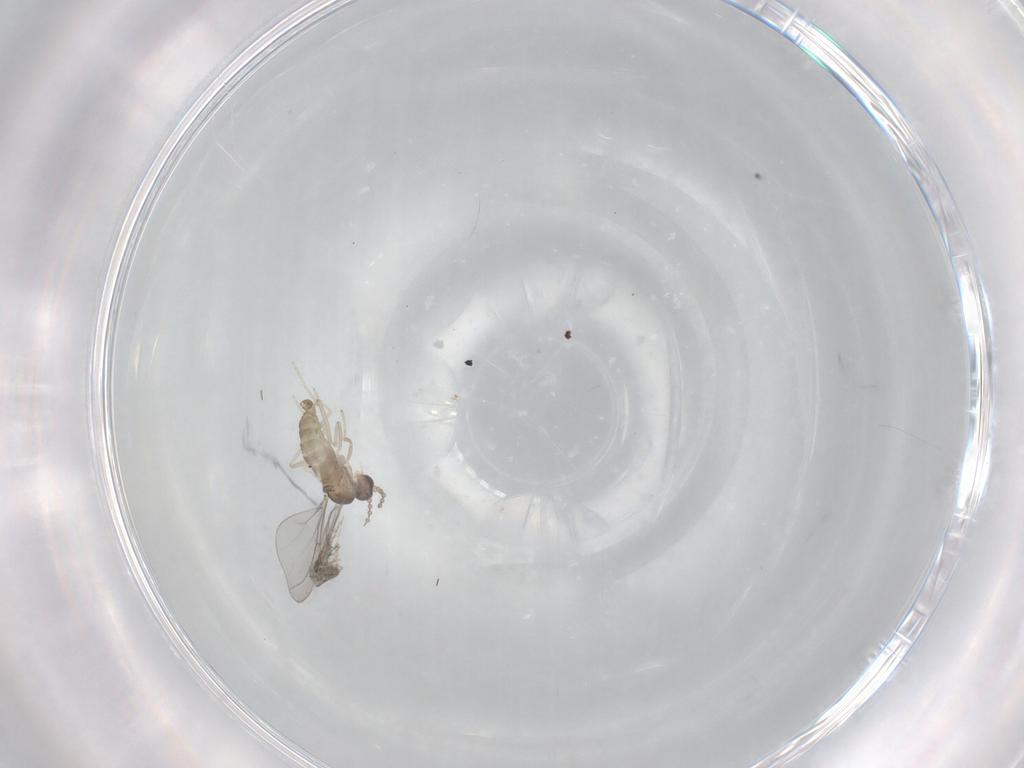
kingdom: Animalia
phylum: Arthropoda
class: Insecta
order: Diptera
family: Cecidomyiidae
